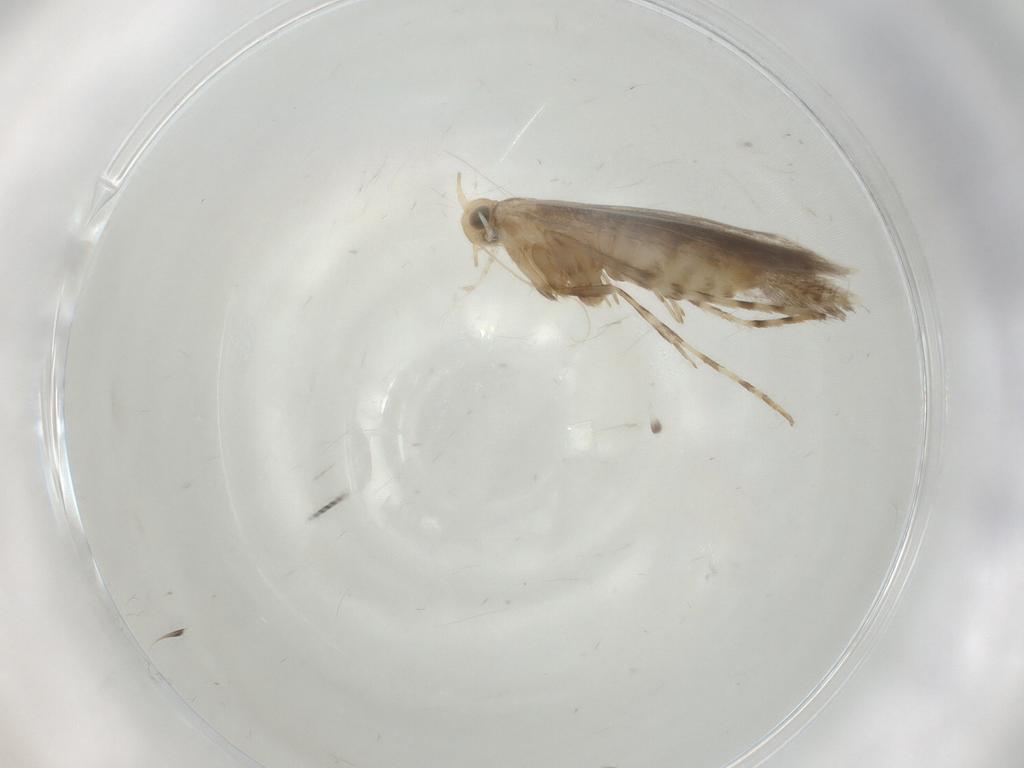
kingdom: Animalia
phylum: Arthropoda
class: Insecta
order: Lepidoptera
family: Gracillariidae
